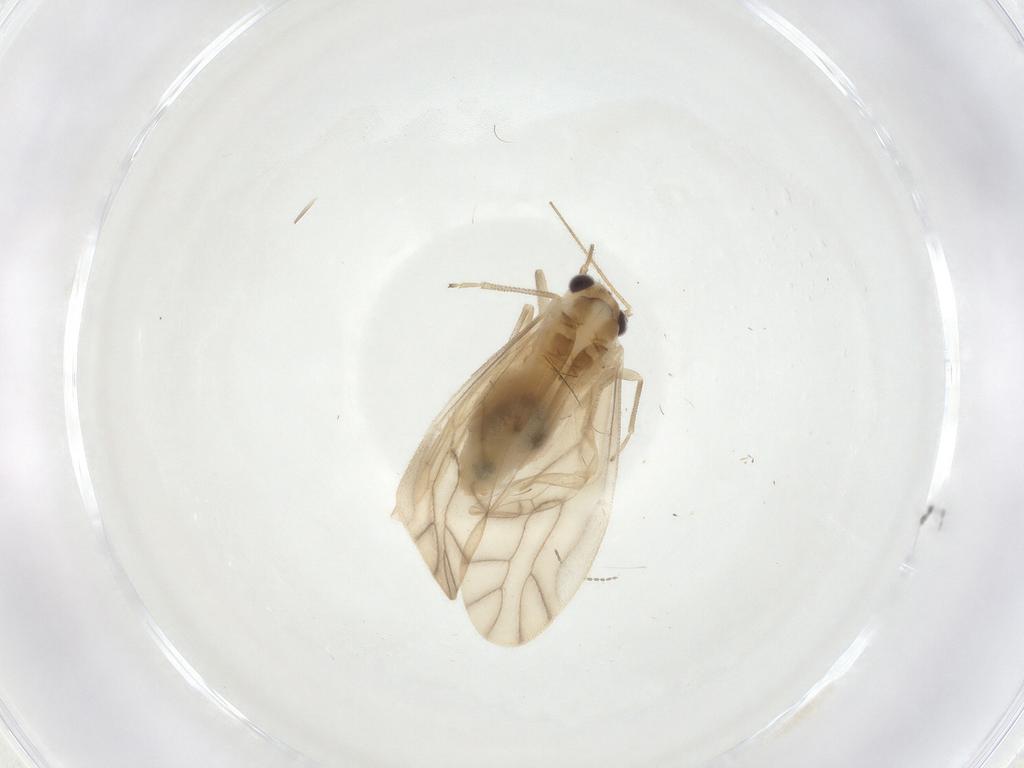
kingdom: Animalia
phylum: Arthropoda
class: Insecta
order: Psocodea
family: Caeciliusidae
